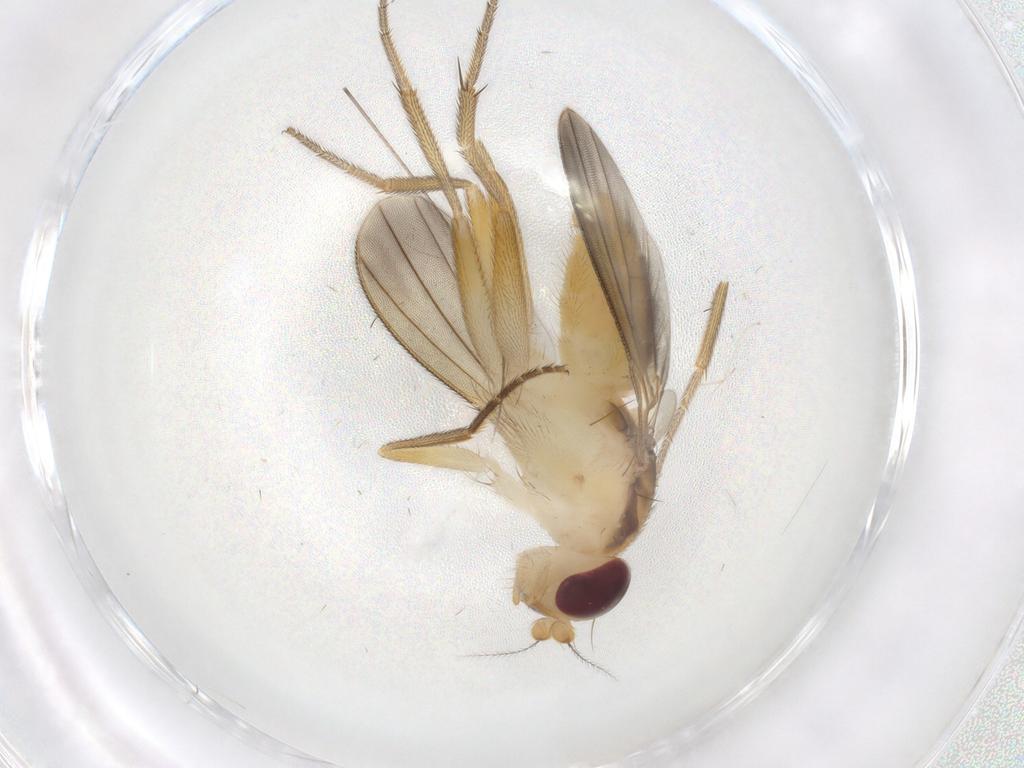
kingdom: Animalia
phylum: Arthropoda
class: Insecta
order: Diptera
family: Clusiidae
